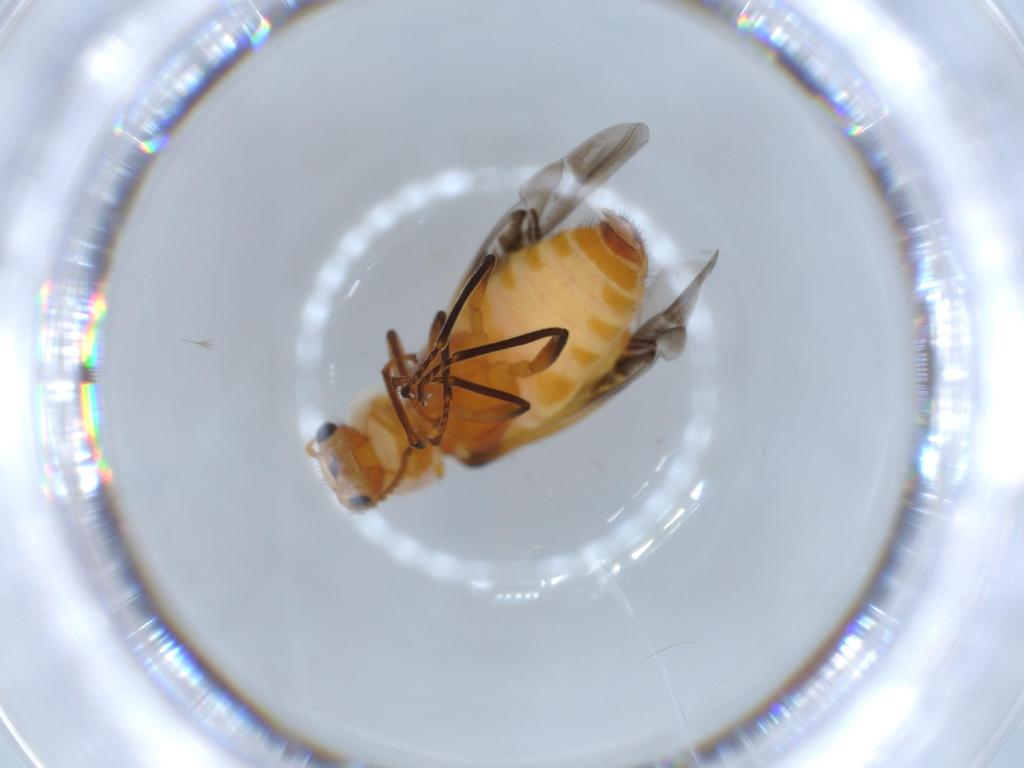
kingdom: Animalia
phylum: Arthropoda
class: Insecta
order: Coleoptera
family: Melyridae
